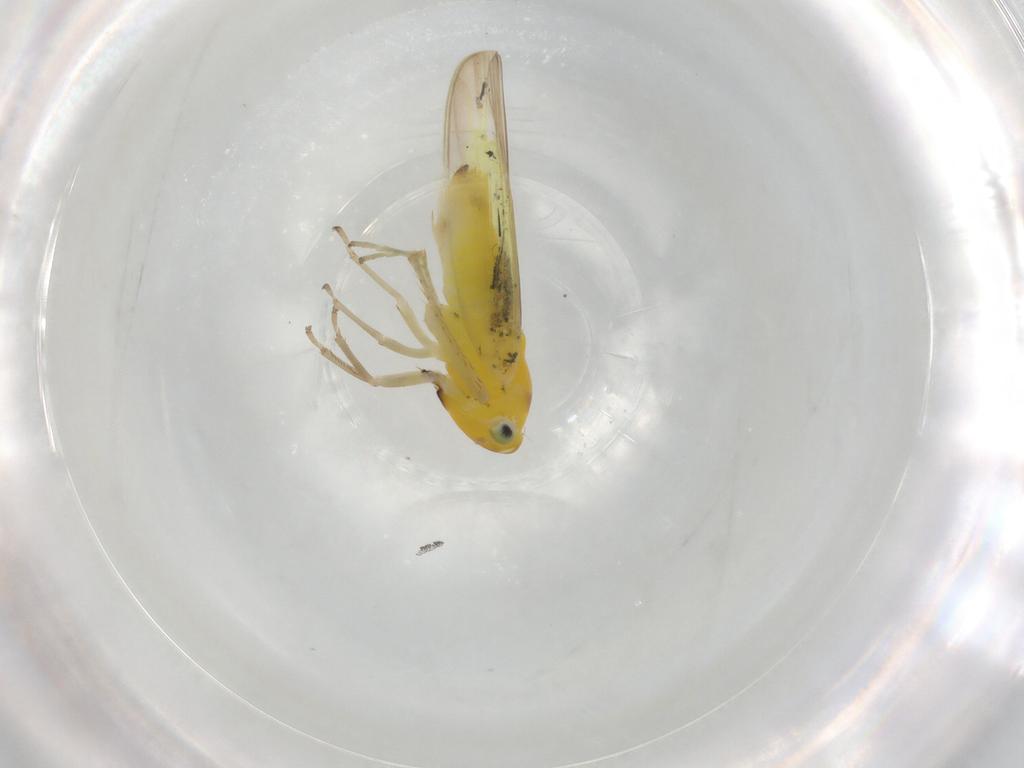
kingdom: Animalia
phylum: Arthropoda
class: Insecta
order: Hemiptera
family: Cicadellidae
